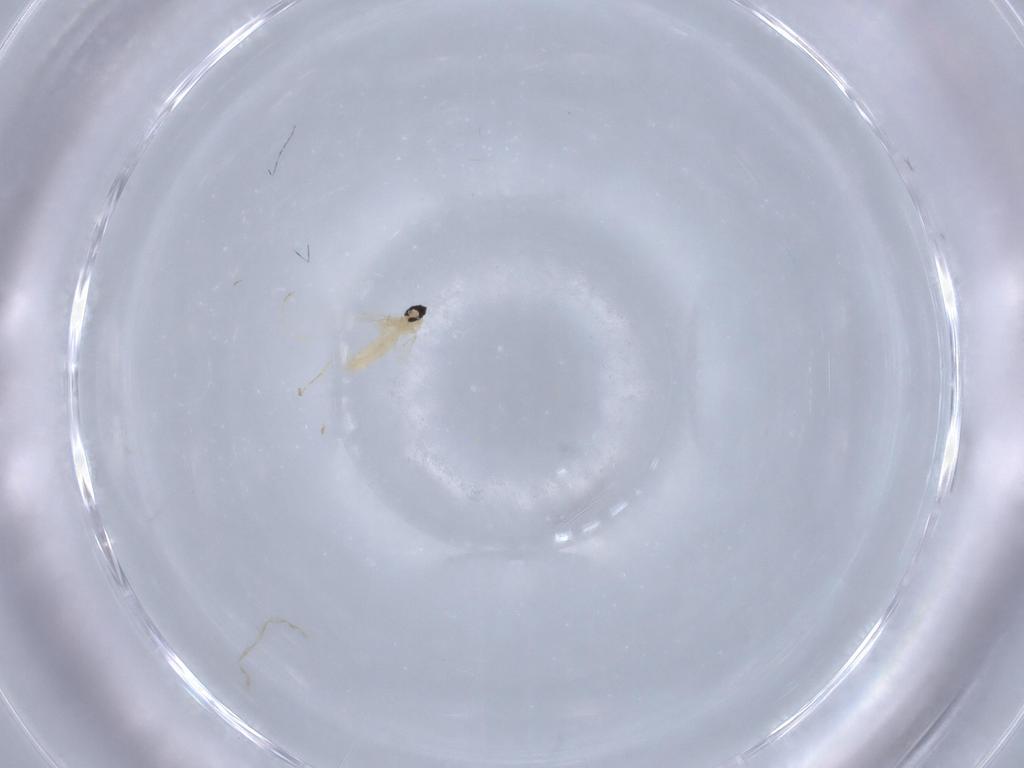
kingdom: Animalia
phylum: Arthropoda
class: Insecta
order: Diptera
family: Cecidomyiidae
